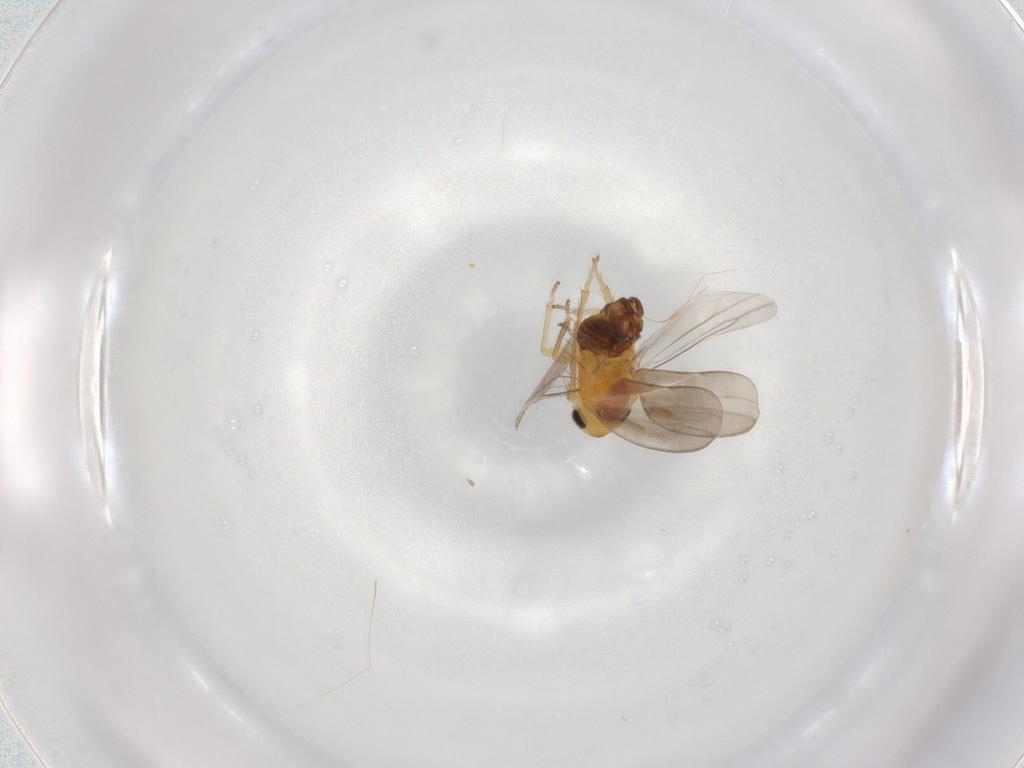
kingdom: Animalia
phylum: Arthropoda
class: Insecta
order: Hemiptera
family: Cicadellidae
